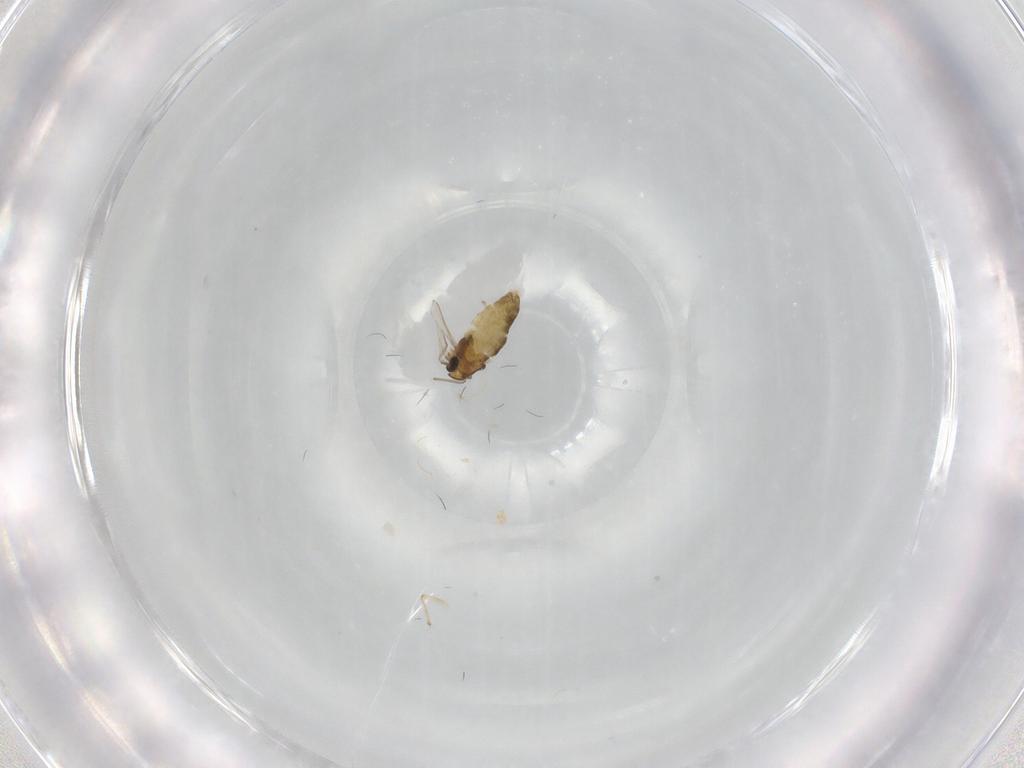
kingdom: Animalia
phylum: Arthropoda
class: Insecta
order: Diptera
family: Chironomidae
